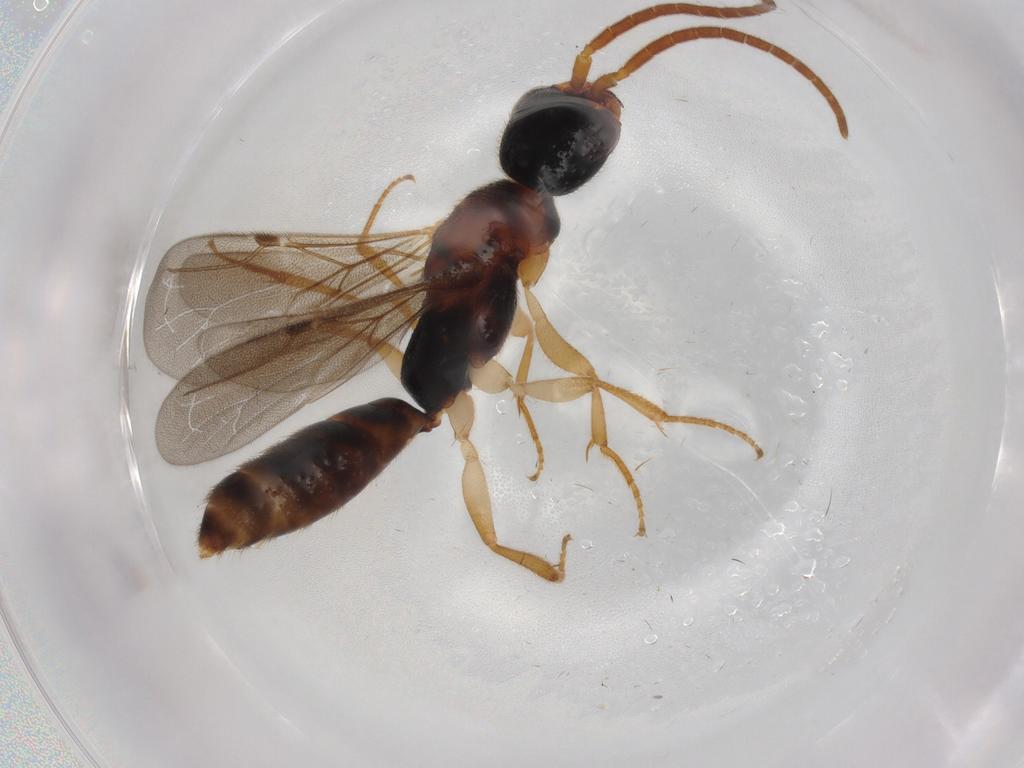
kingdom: Animalia
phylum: Arthropoda
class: Insecta
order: Hymenoptera
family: Bethylidae
